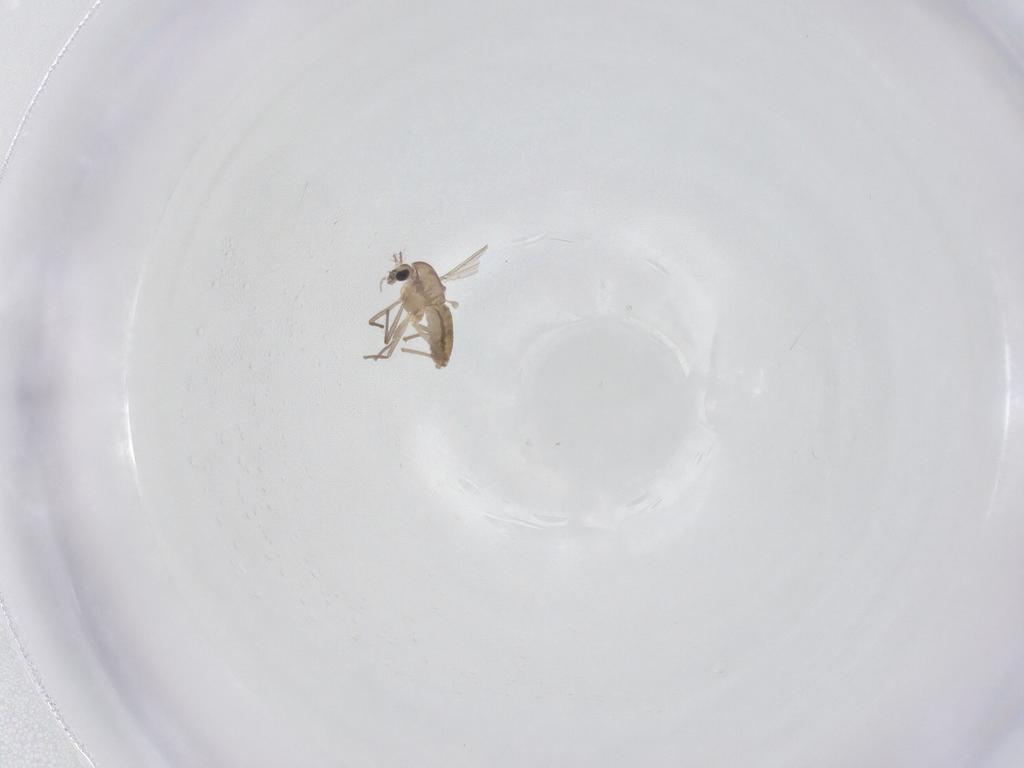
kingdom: Animalia
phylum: Arthropoda
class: Insecta
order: Diptera
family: Chironomidae
